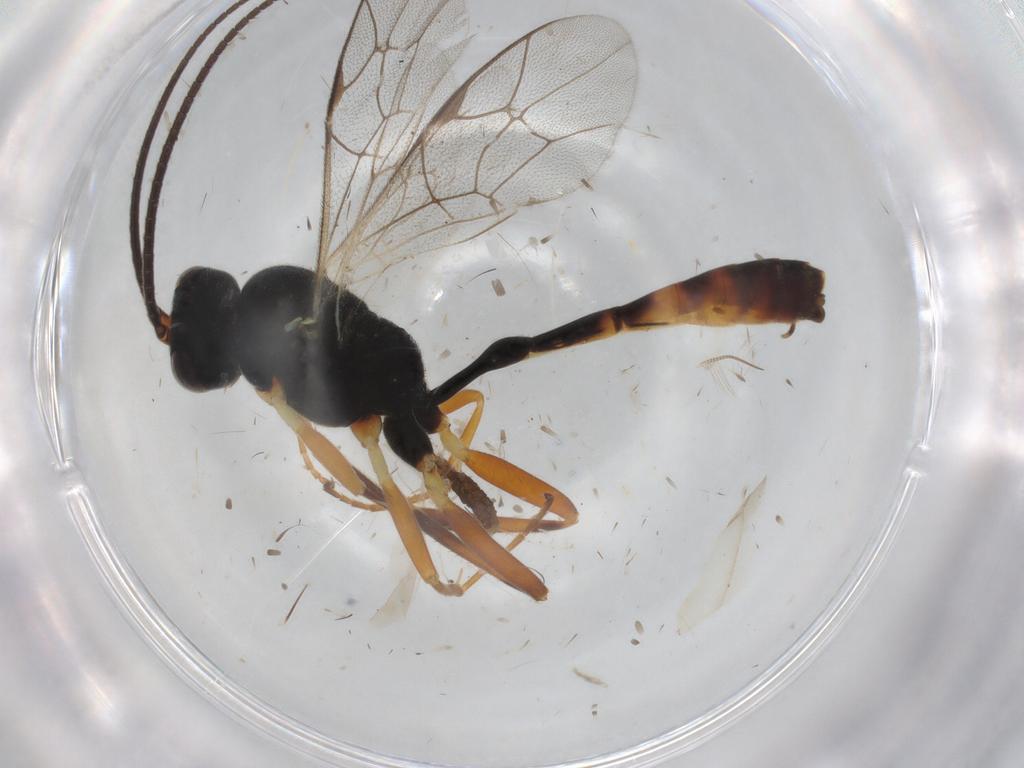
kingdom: Animalia
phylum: Arthropoda
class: Insecta
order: Hymenoptera
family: Ichneumonidae
